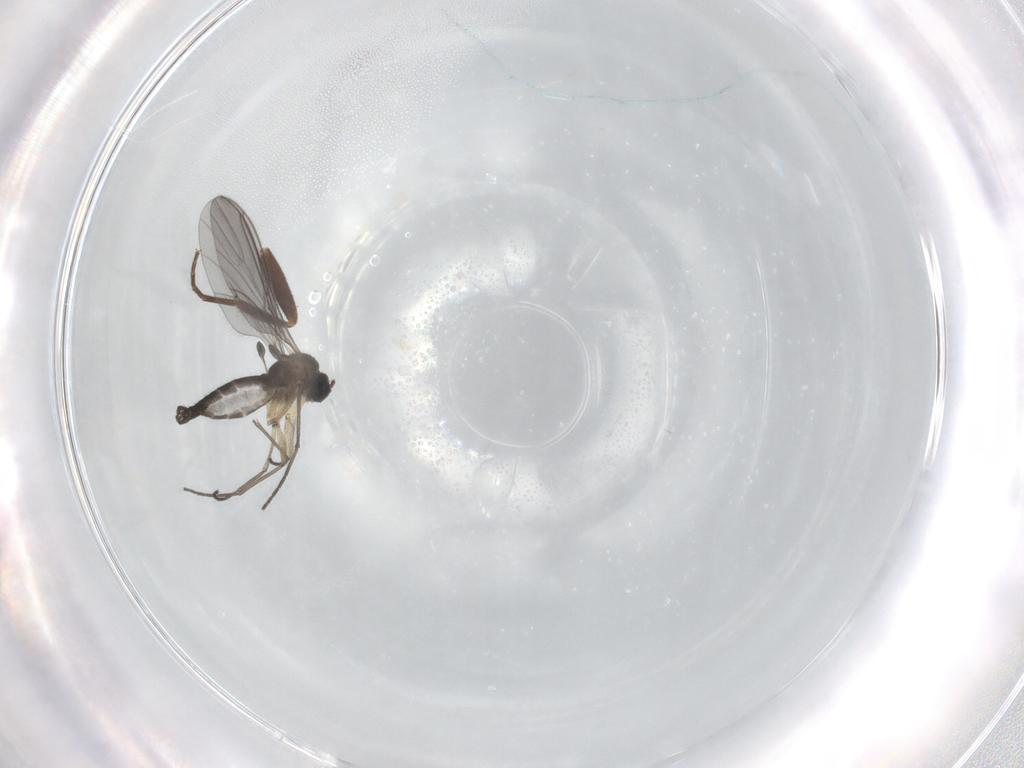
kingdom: Animalia
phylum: Arthropoda
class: Insecta
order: Diptera
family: Sciaridae
